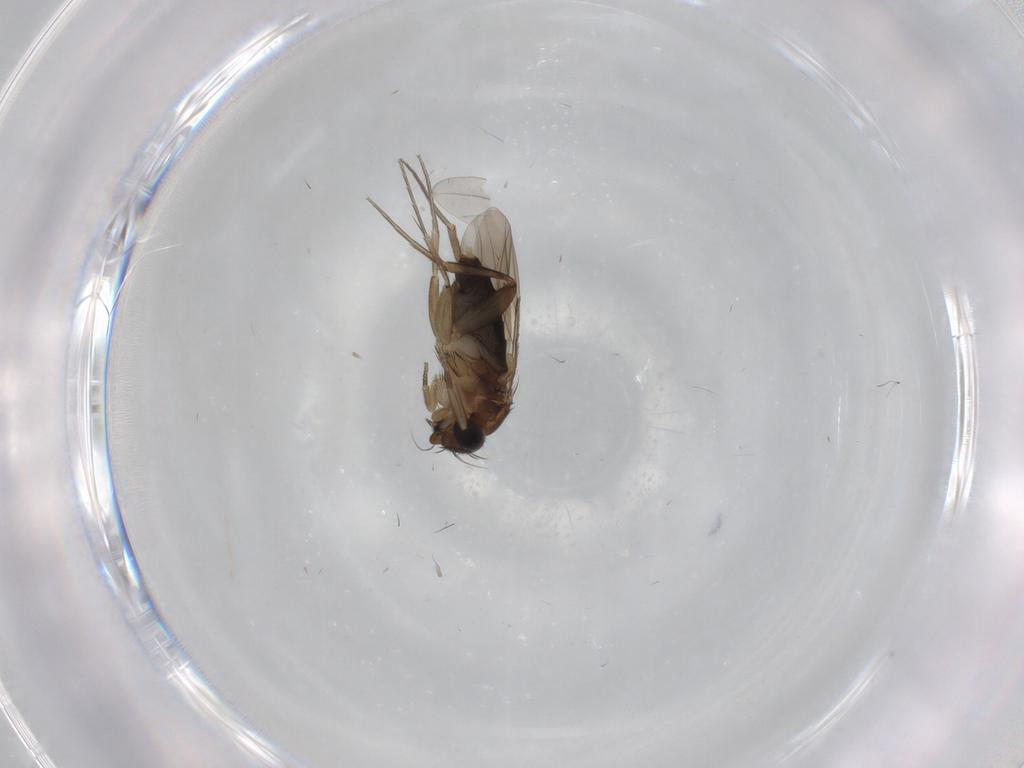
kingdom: Animalia
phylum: Arthropoda
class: Insecta
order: Diptera
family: Phoridae
